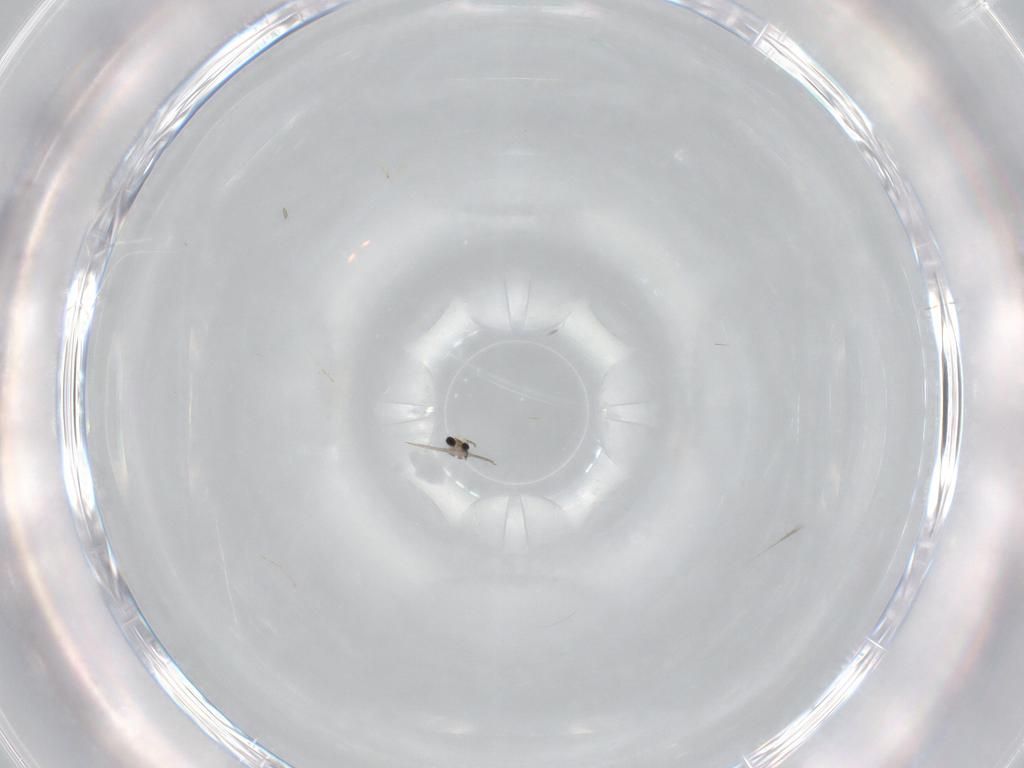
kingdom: Animalia
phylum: Arthropoda
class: Insecta
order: Diptera
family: Cecidomyiidae
